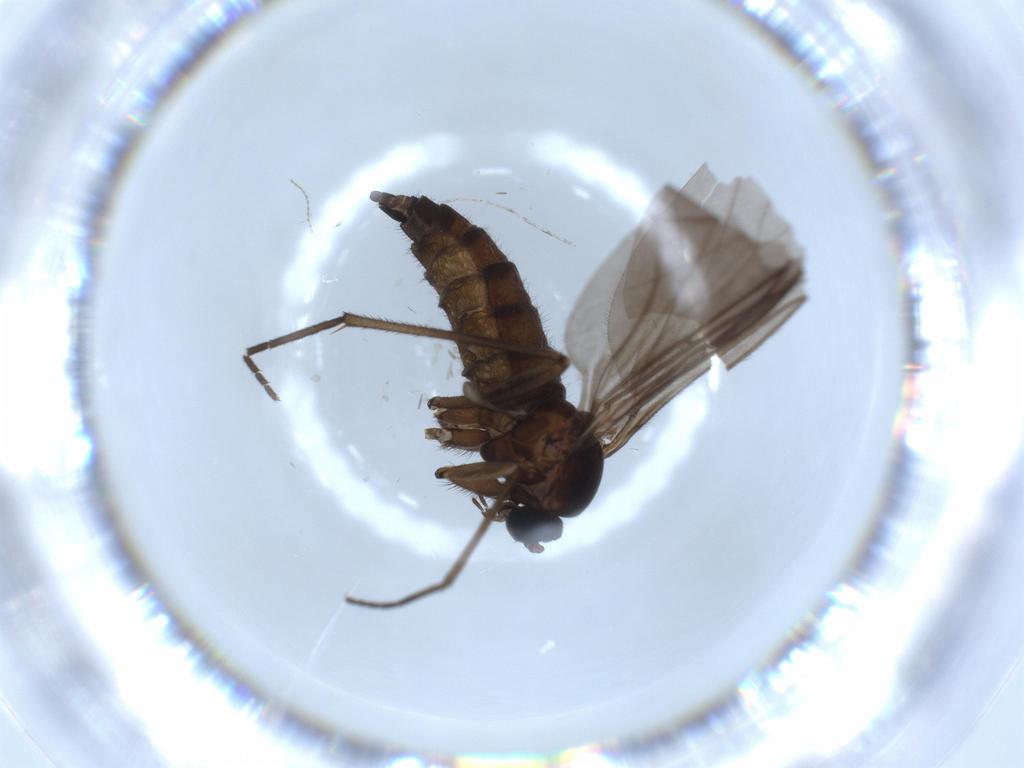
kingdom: Animalia
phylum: Arthropoda
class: Insecta
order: Diptera
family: Sciaridae
